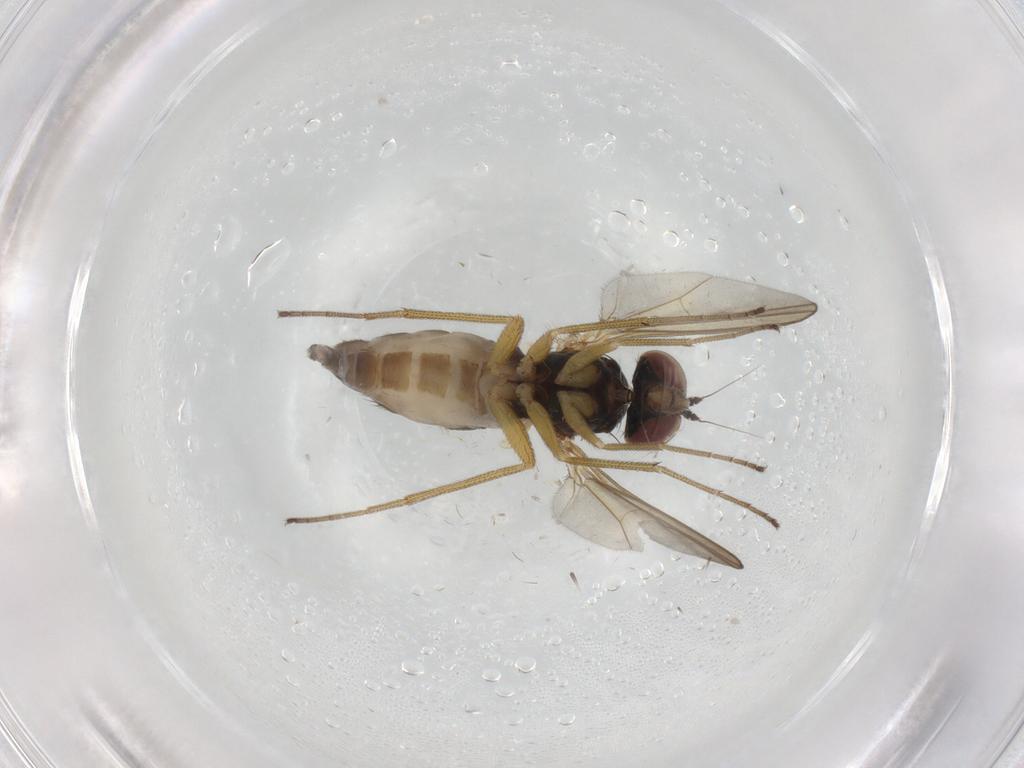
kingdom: Animalia
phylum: Arthropoda
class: Insecta
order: Diptera
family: Dolichopodidae
